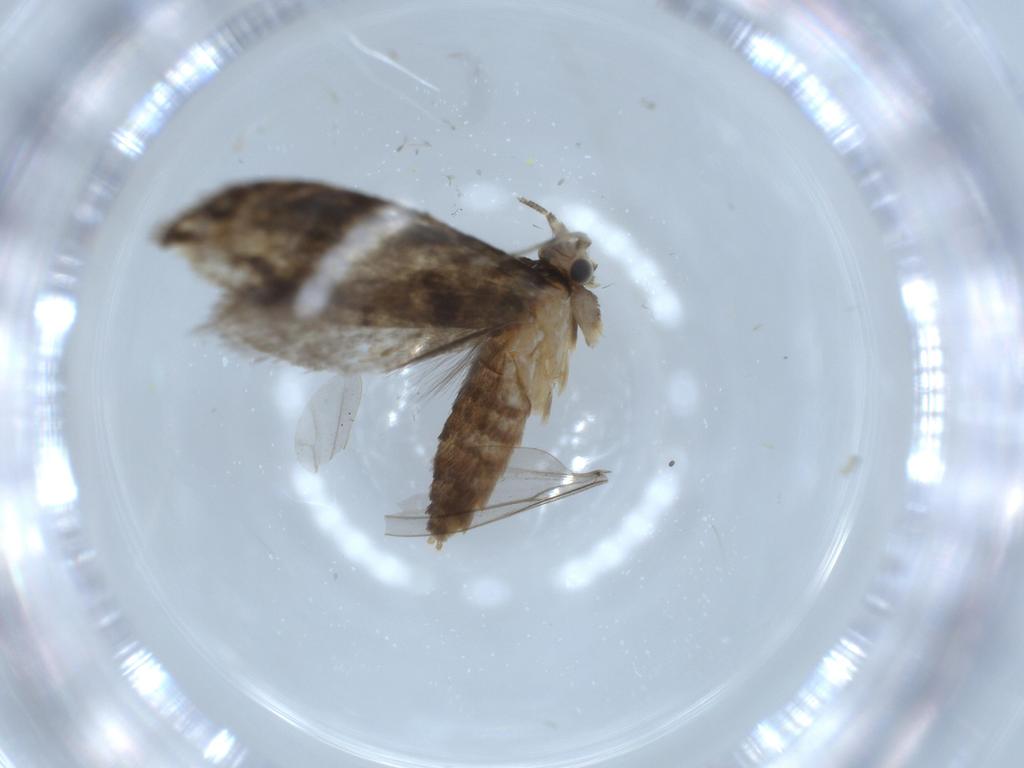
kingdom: Animalia
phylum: Arthropoda
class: Insecta
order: Lepidoptera
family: Tineidae
